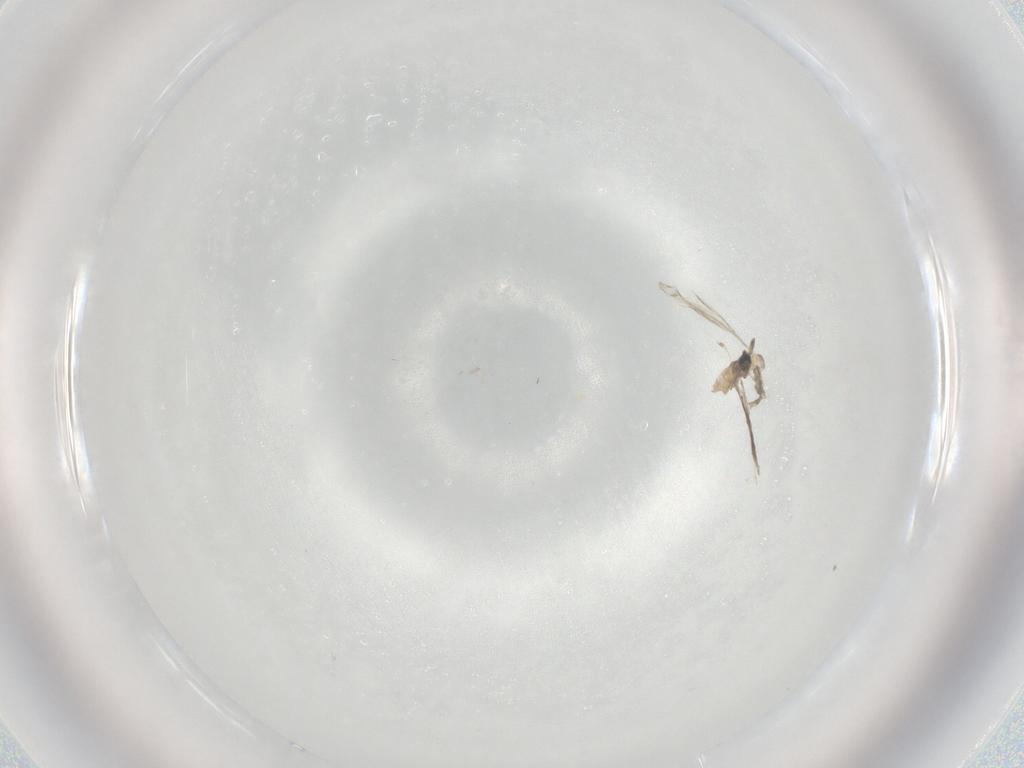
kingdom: Animalia
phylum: Arthropoda
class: Insecta
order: Diptera
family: Cecidomyiidae
